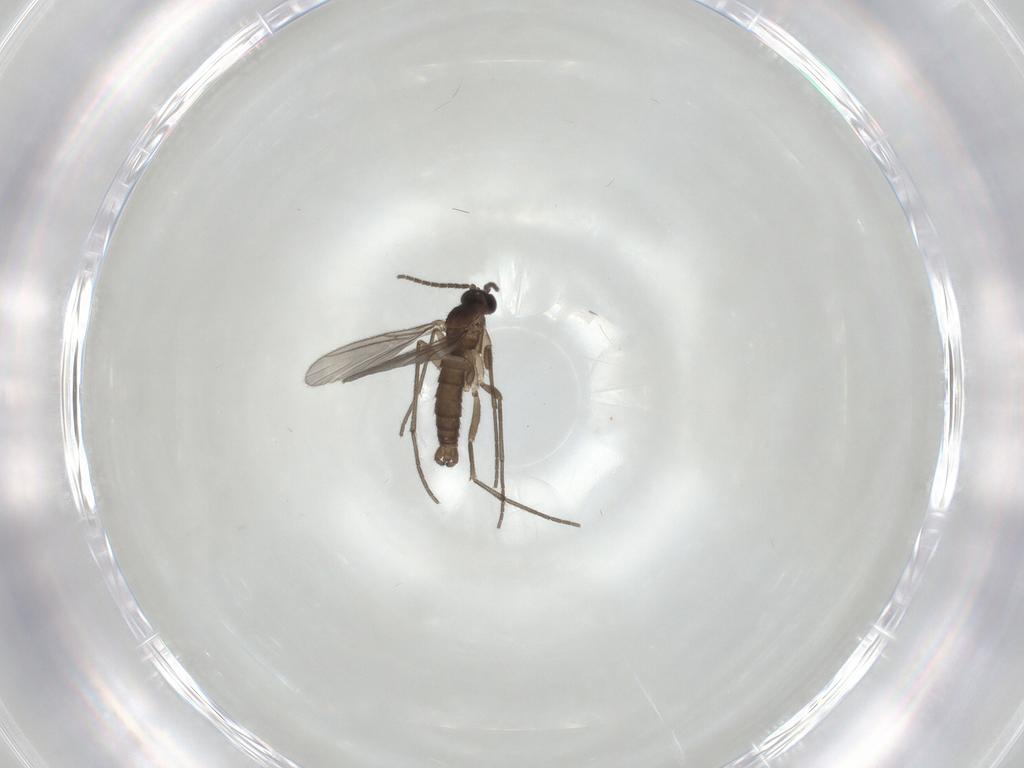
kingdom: Animalia
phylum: Arthropoda
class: Insecta
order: Diptera
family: Sciaridae
